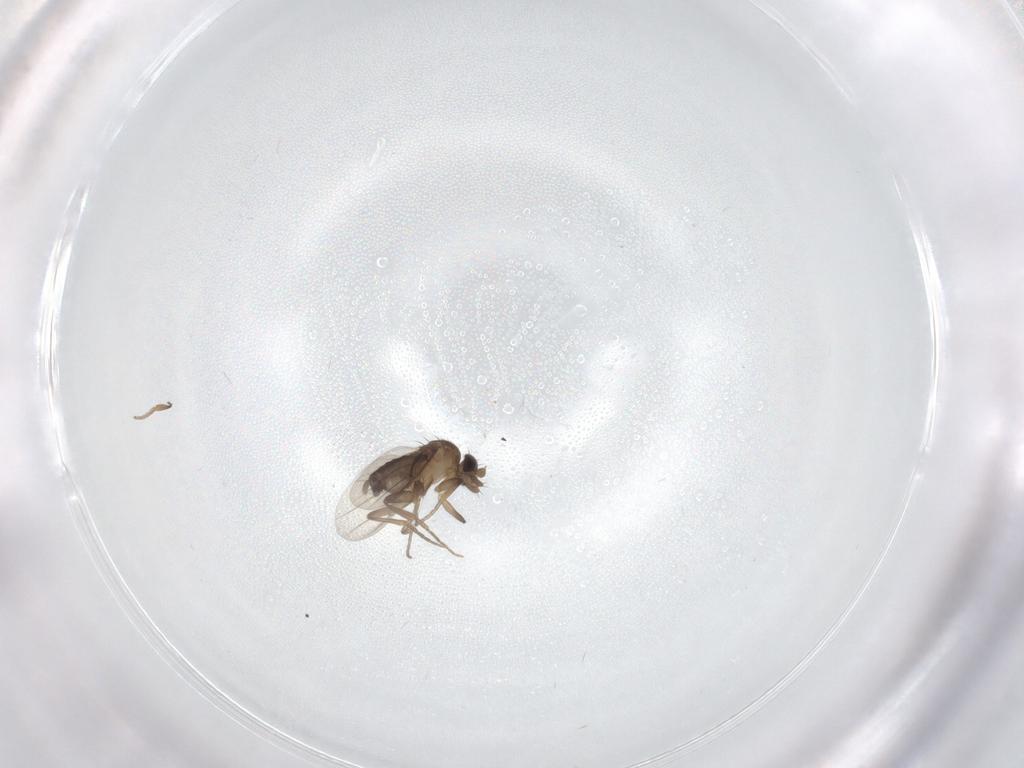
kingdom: Animalia
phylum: Arthropoda
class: Insecta
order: Diptera
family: Phoridae
